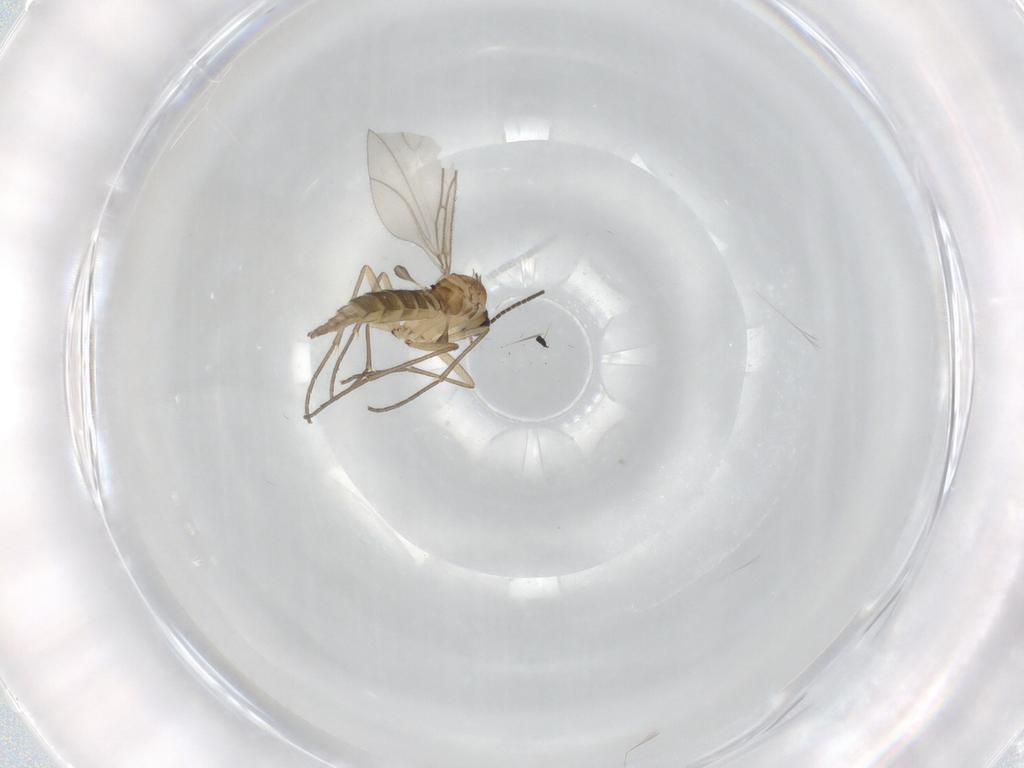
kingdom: Animalia
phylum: Arthropoda
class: Insecta
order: Diptera
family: Sciaridae
